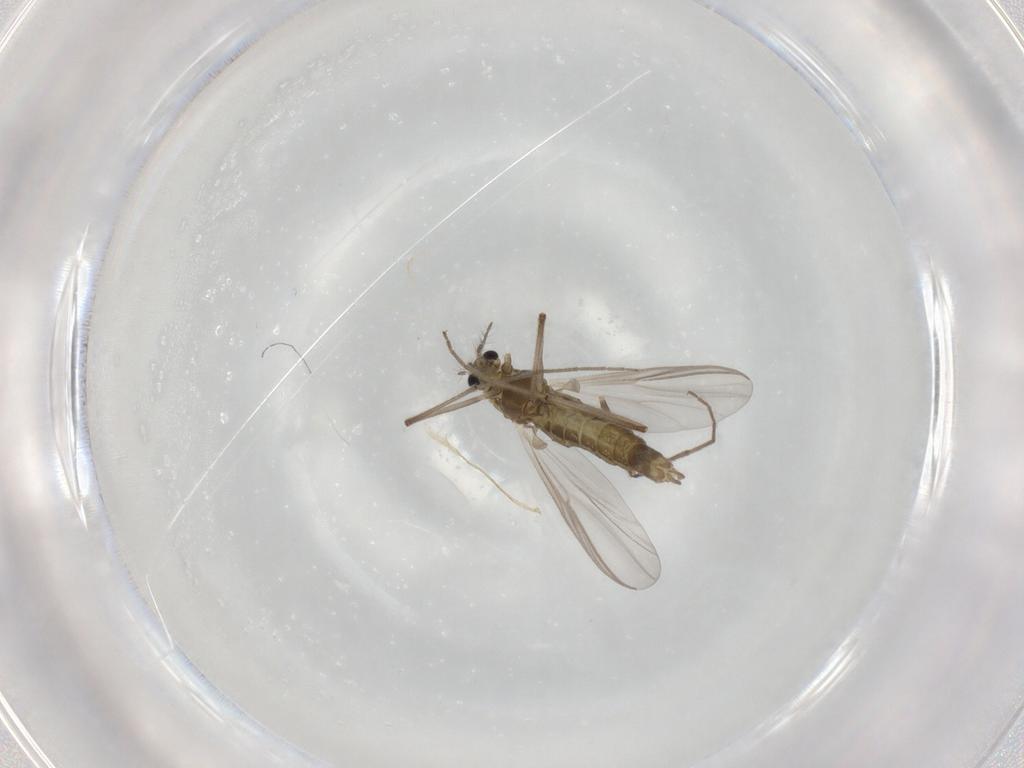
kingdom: Animalia
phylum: Arthropoda
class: Insecta
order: Diptera
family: Chironomidae
